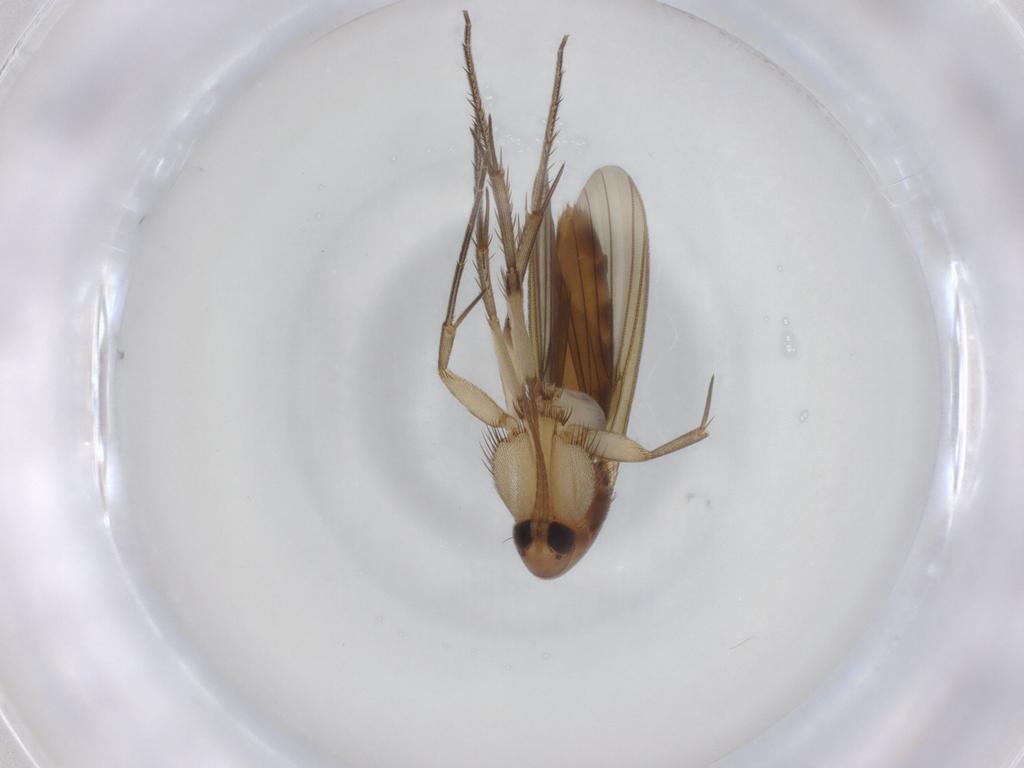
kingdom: Animalia
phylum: Arthropoda
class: Insecta
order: Diptera
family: Mycetophilidae
